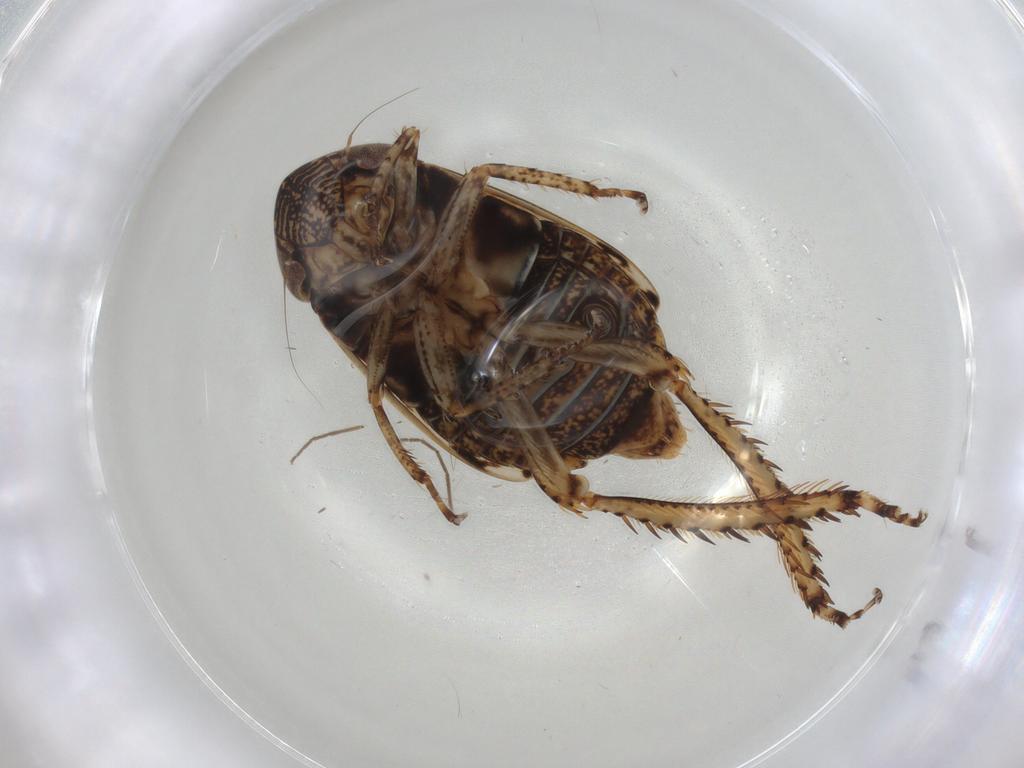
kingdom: Animalia
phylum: Arthropoda
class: Insecta
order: Hemiptera
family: Cicadellidae
